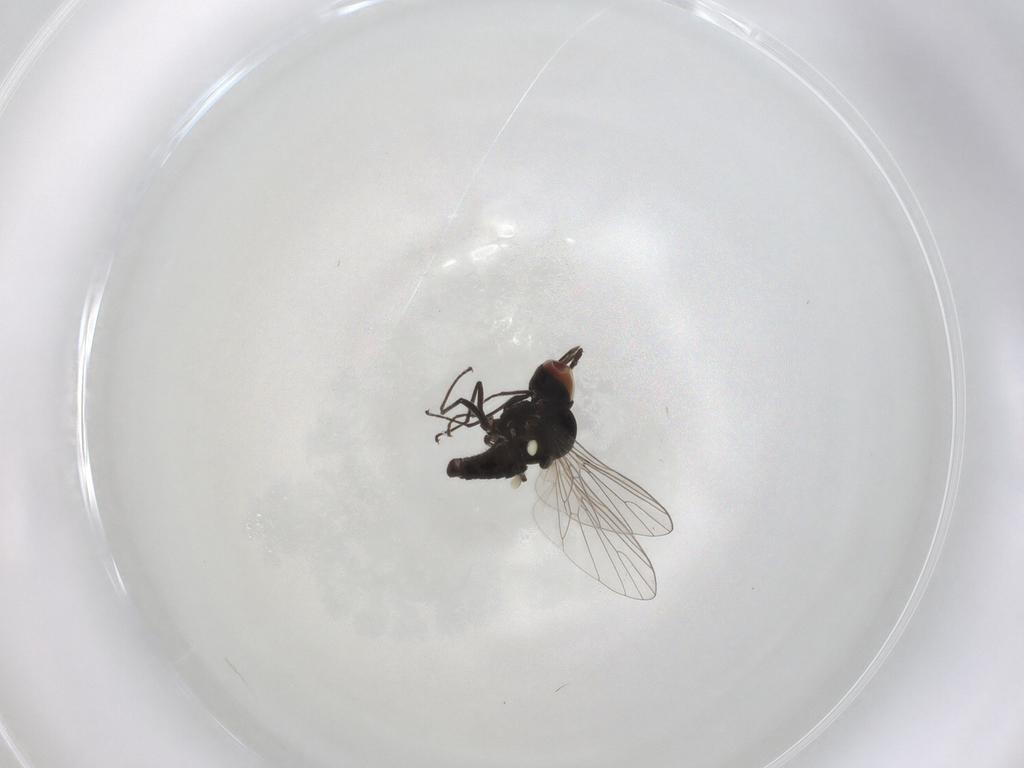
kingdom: Animalia
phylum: Arthropoda
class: Insecta
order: Diptera
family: Bombyliidae
